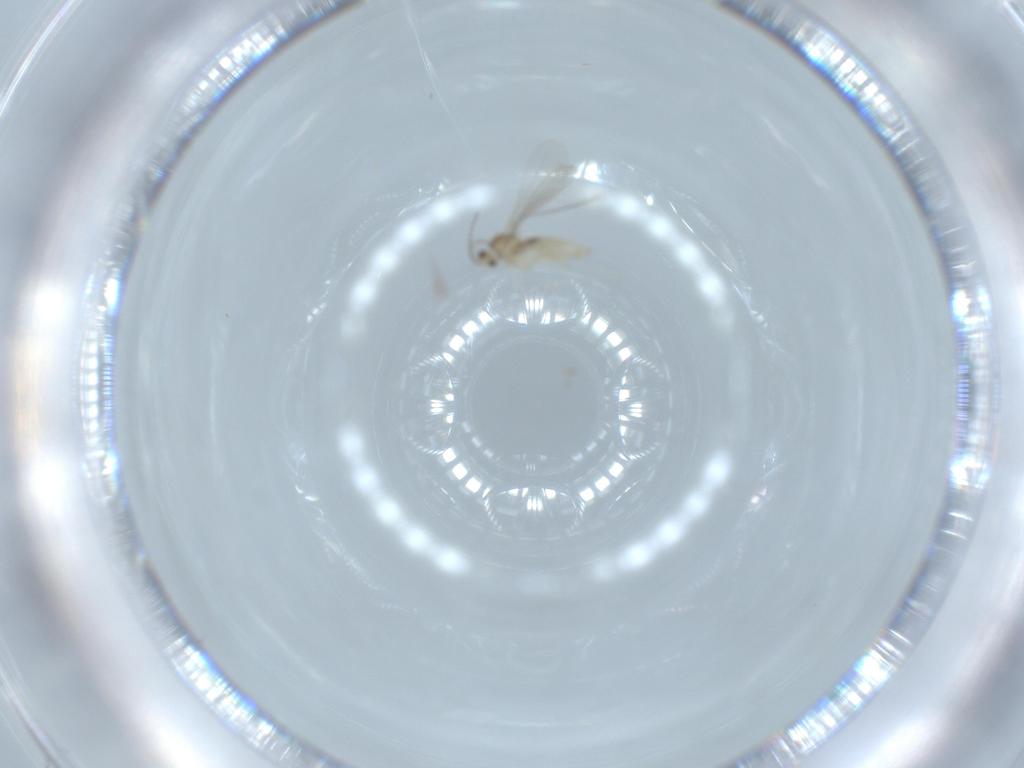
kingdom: Animalia
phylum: Arthropoda
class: Insecta
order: Diptera
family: Cecidomyiidae
